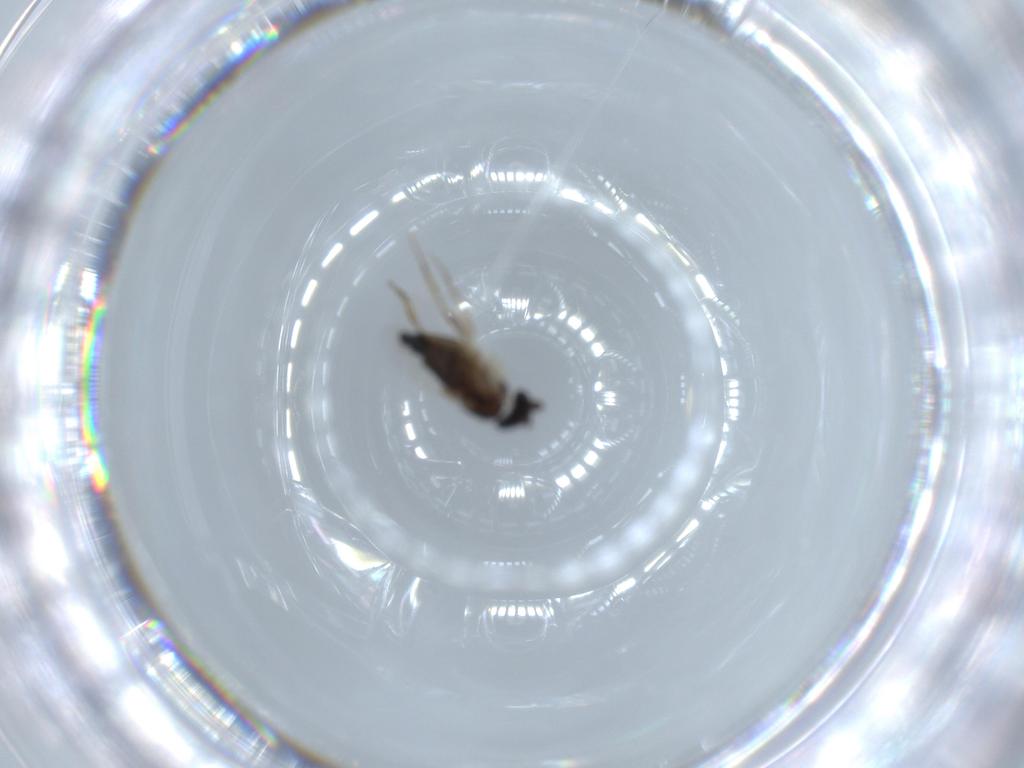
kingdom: Animalia
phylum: Arthropoda
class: Insecta
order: Diptera
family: Phoridae
